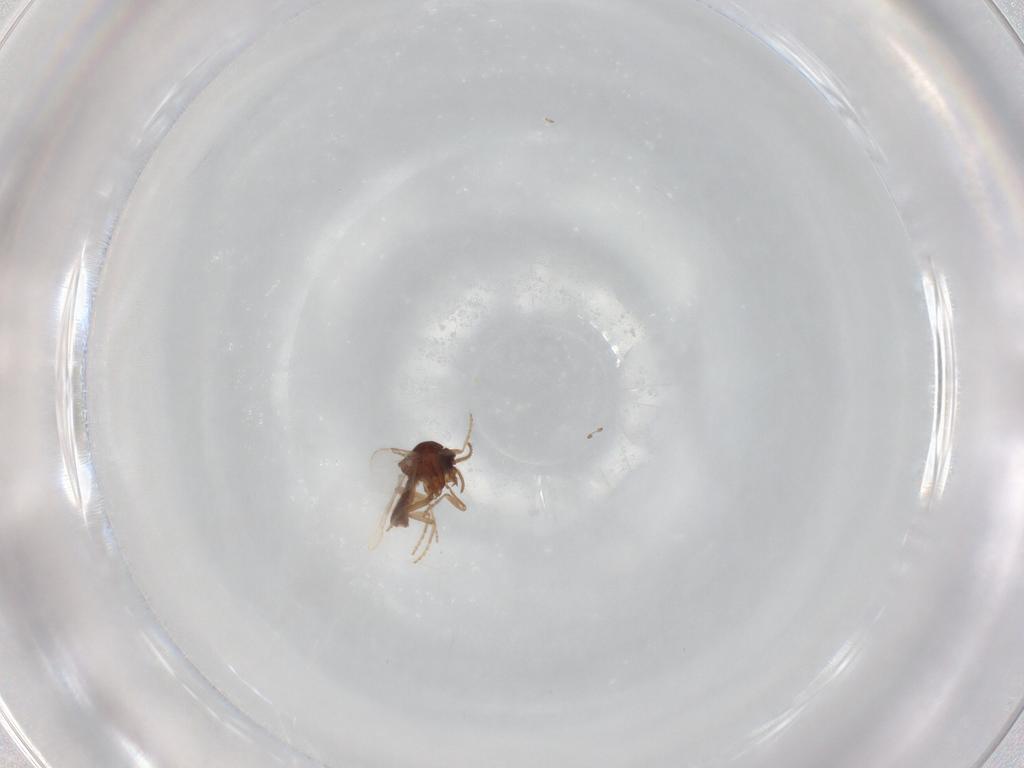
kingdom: Animalia
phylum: Arthropoda
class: Insecta
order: Diptera
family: Ceratopogonidae
